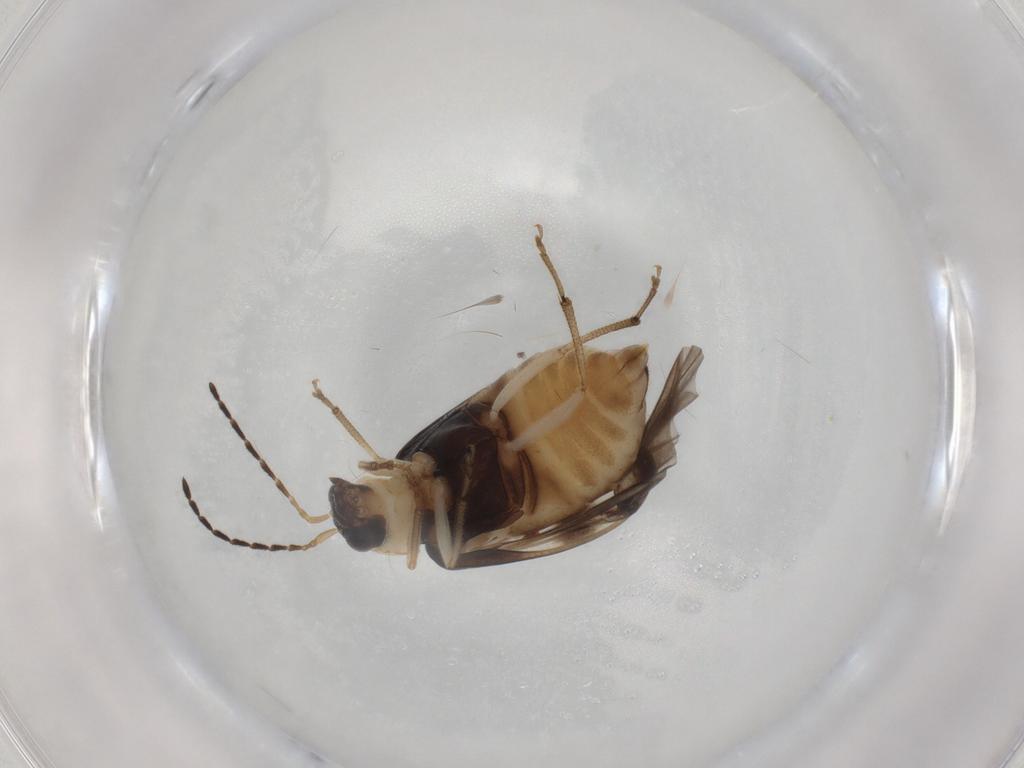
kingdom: Animalia
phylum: Arthropoda
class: Insecta
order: Coleoptera
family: Chrysomelidae
